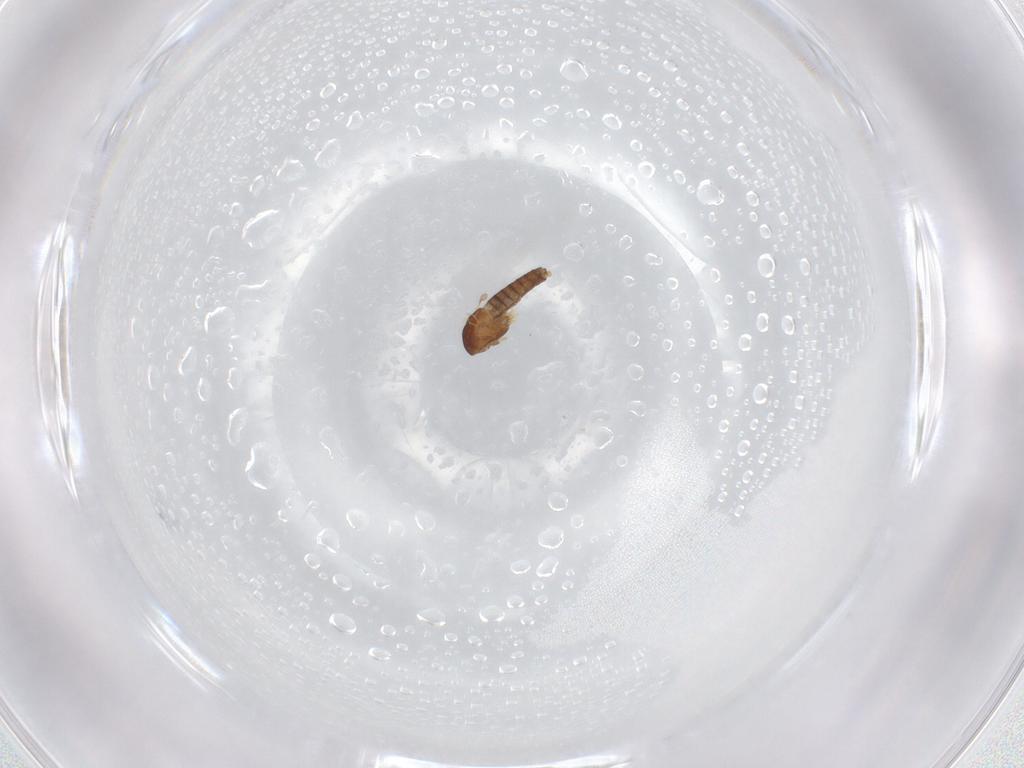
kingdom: Animalia
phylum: Arthropoda
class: Insecta
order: Diptera
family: Chironomidae
